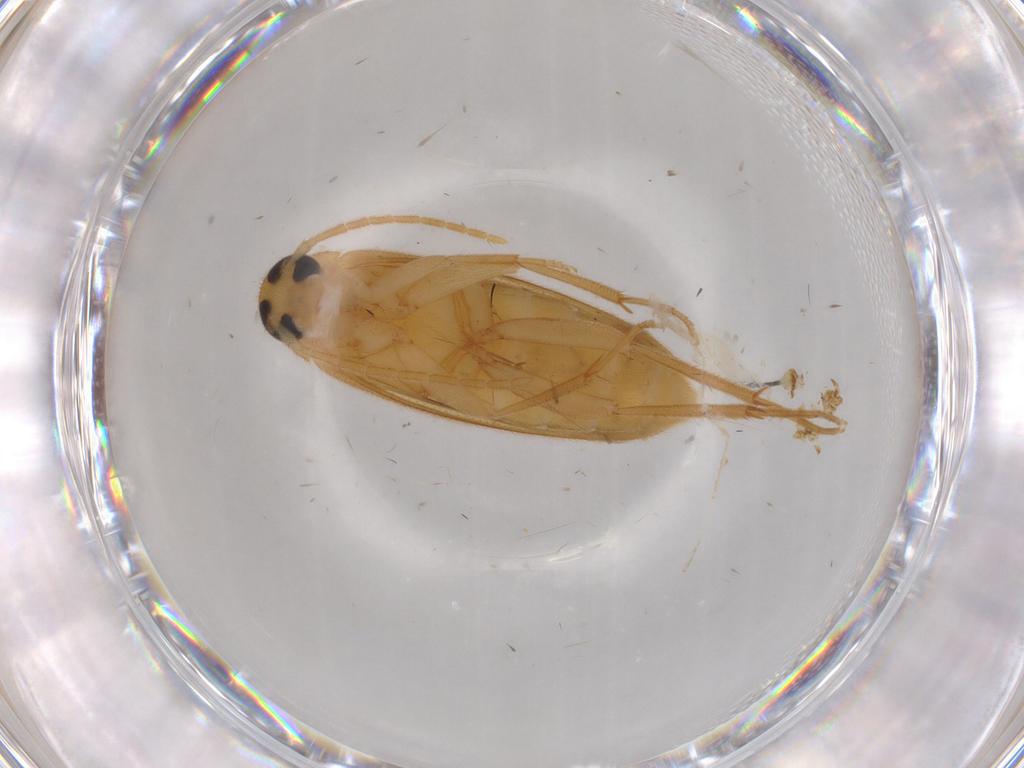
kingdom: Animalia
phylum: Arthropoda
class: Insecta
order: Coleoptera
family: Scraptiidae
